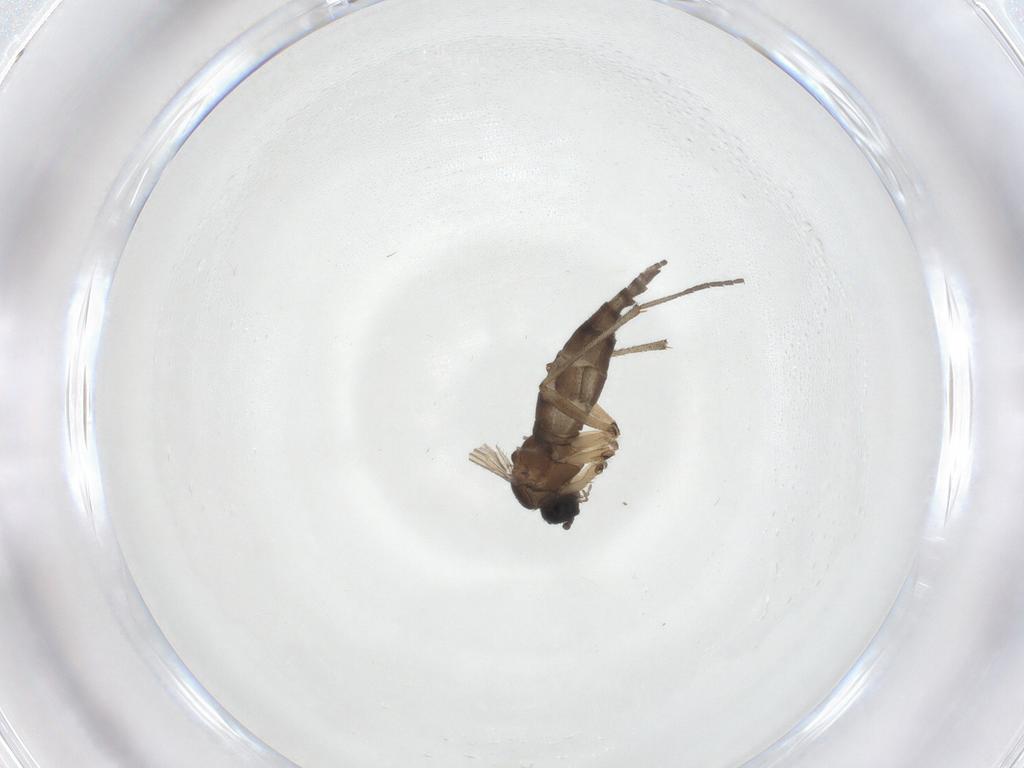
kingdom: Animalia
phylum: Arthropoda
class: Insecta
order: Diptera
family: Sciaridae
